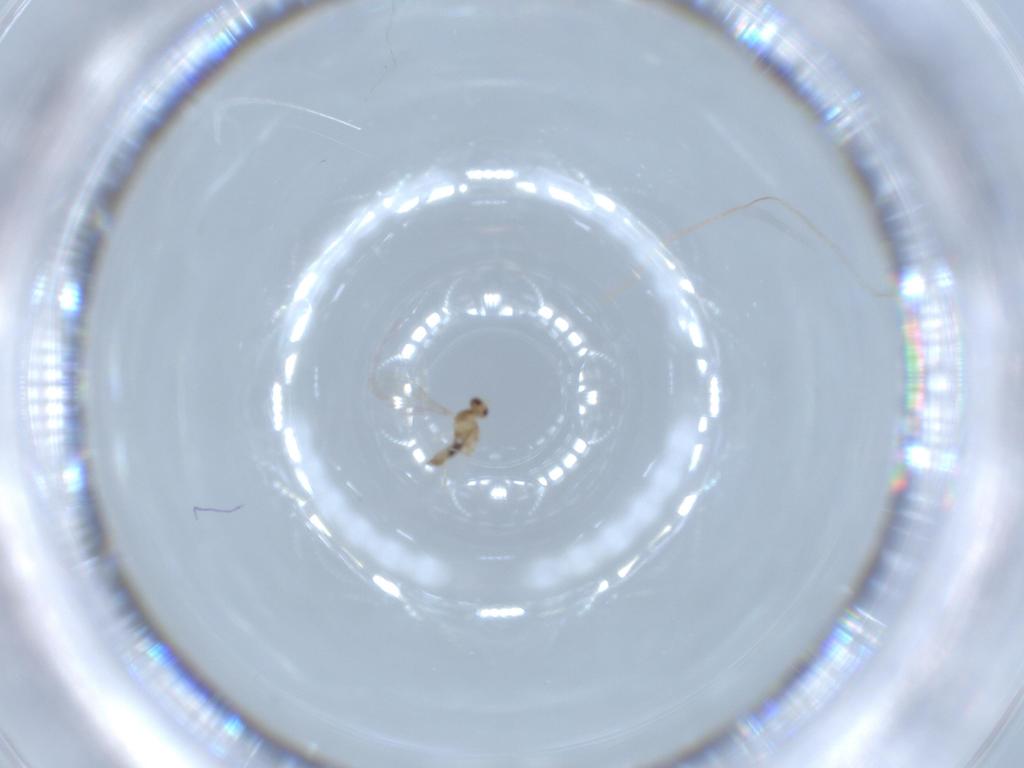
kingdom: Animalia
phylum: Arthropoda
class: Insecta
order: Diptera
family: Cecidomyiidae
